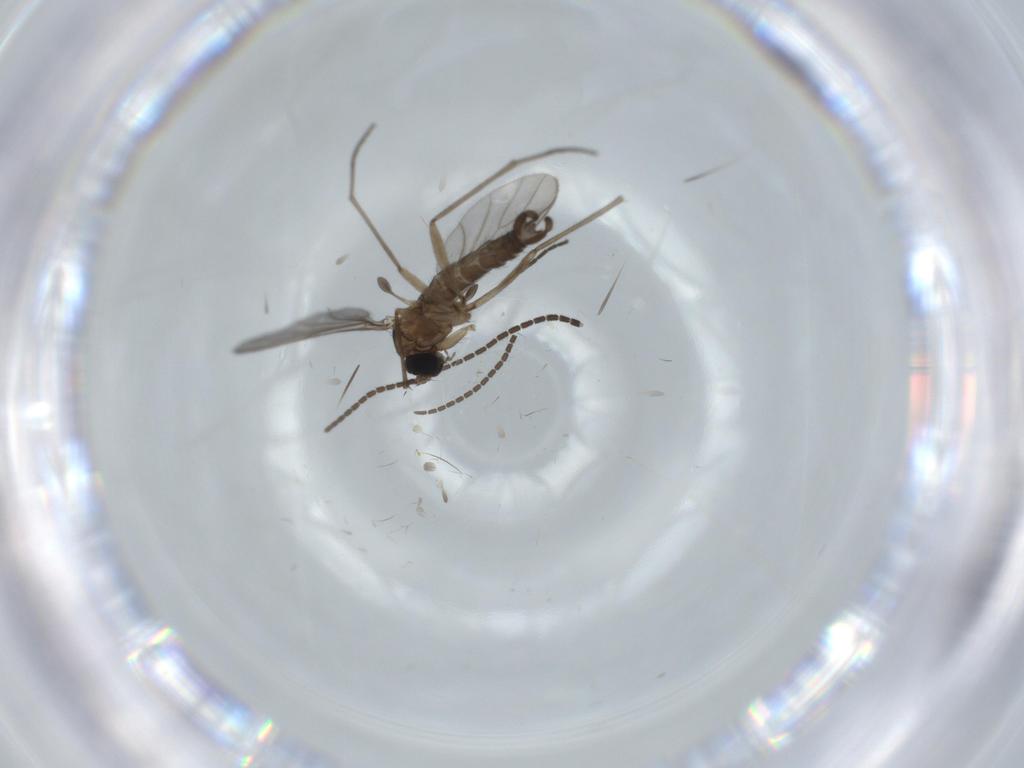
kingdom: Animalia
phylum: Arthropoda
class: Insecta
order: Diptera
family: Sciaridae
